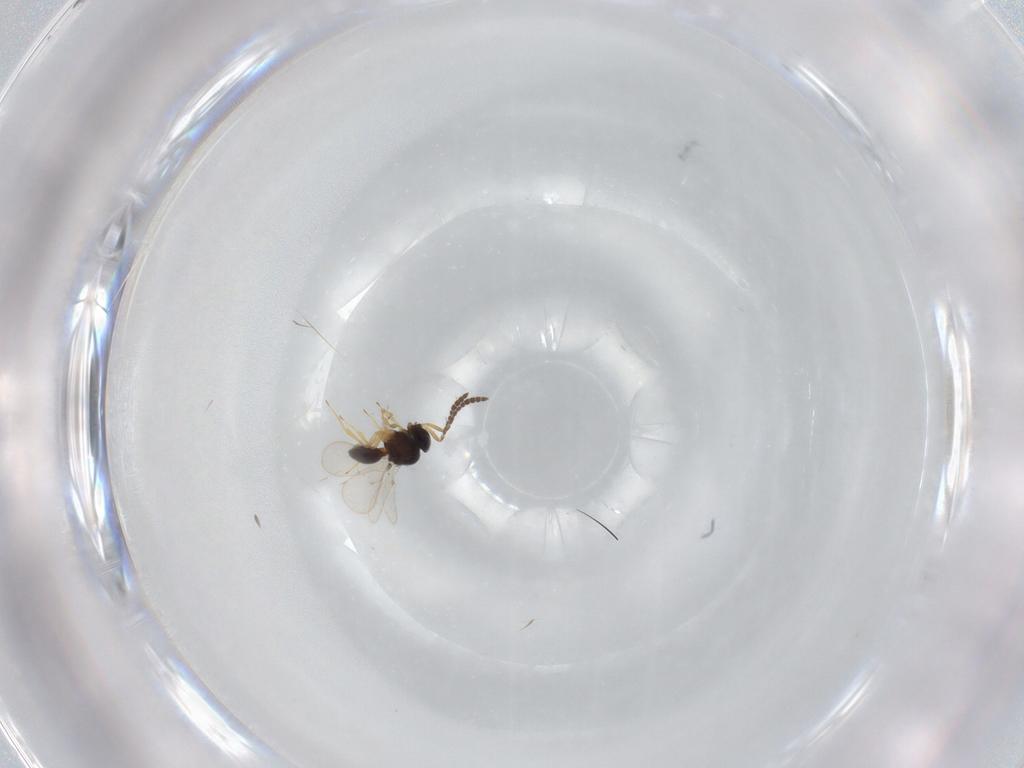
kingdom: Animalia
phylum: Arthropoda
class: Insecta
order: Hymenoptera
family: Scelionidae
